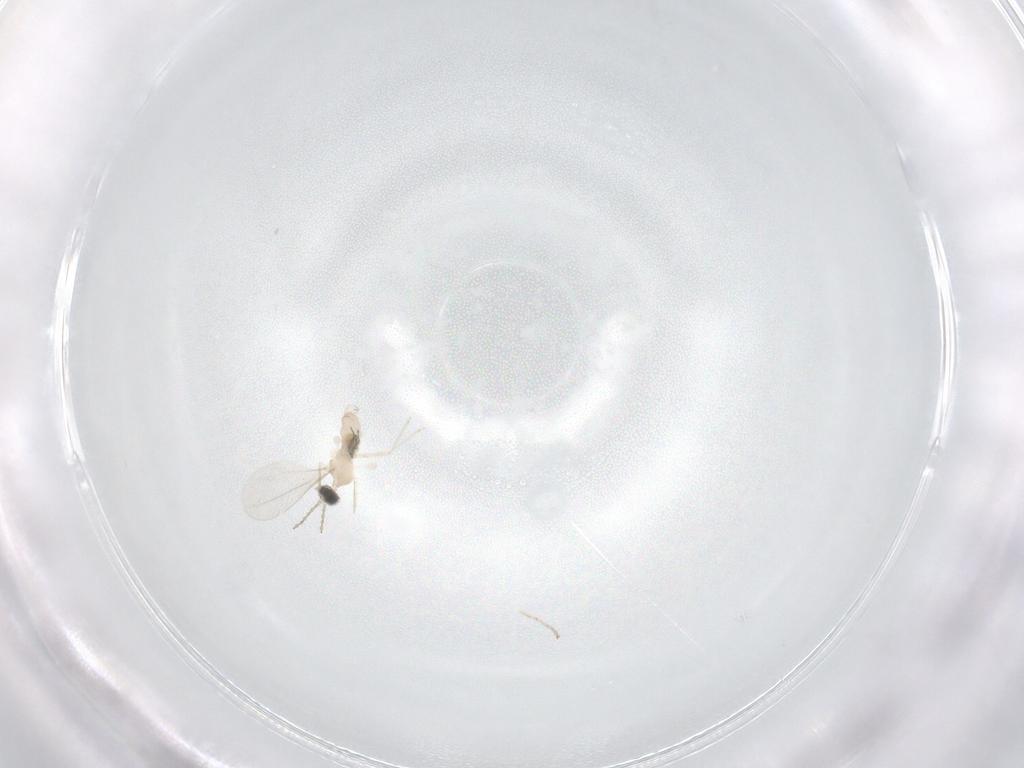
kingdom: Animalia
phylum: Arthropoda
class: Insecta
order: Diptera
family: Cecidomyiidae
